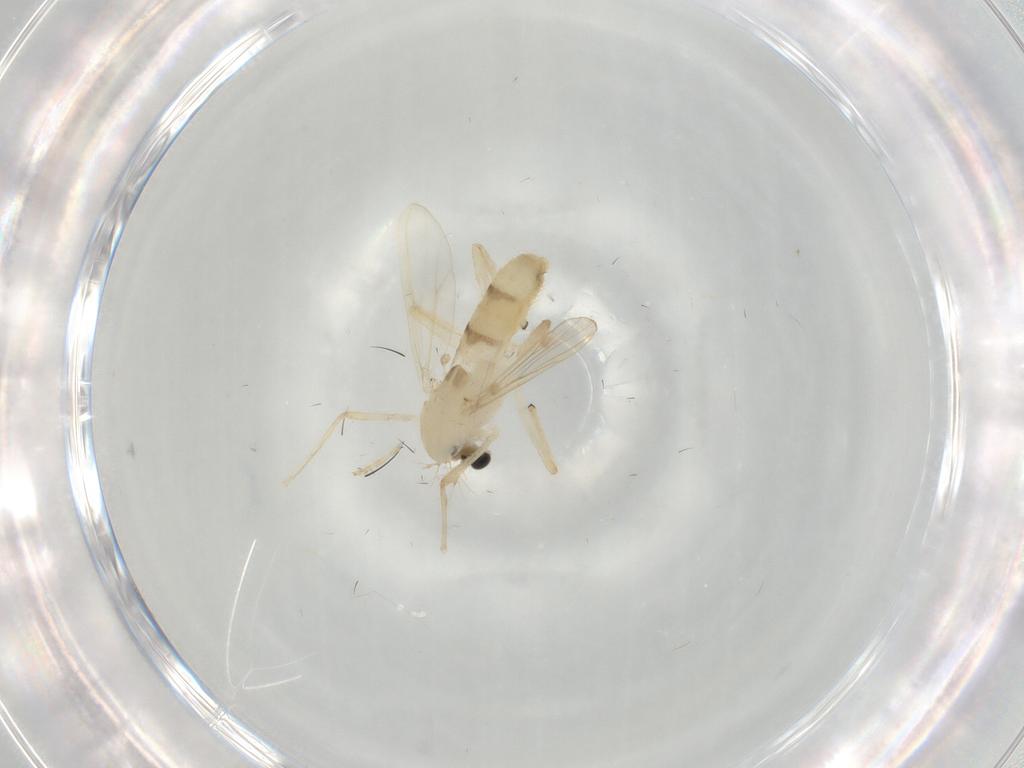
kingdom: Animalia
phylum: Arthropoda
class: Insecta
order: Diptera
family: Chironomidae
